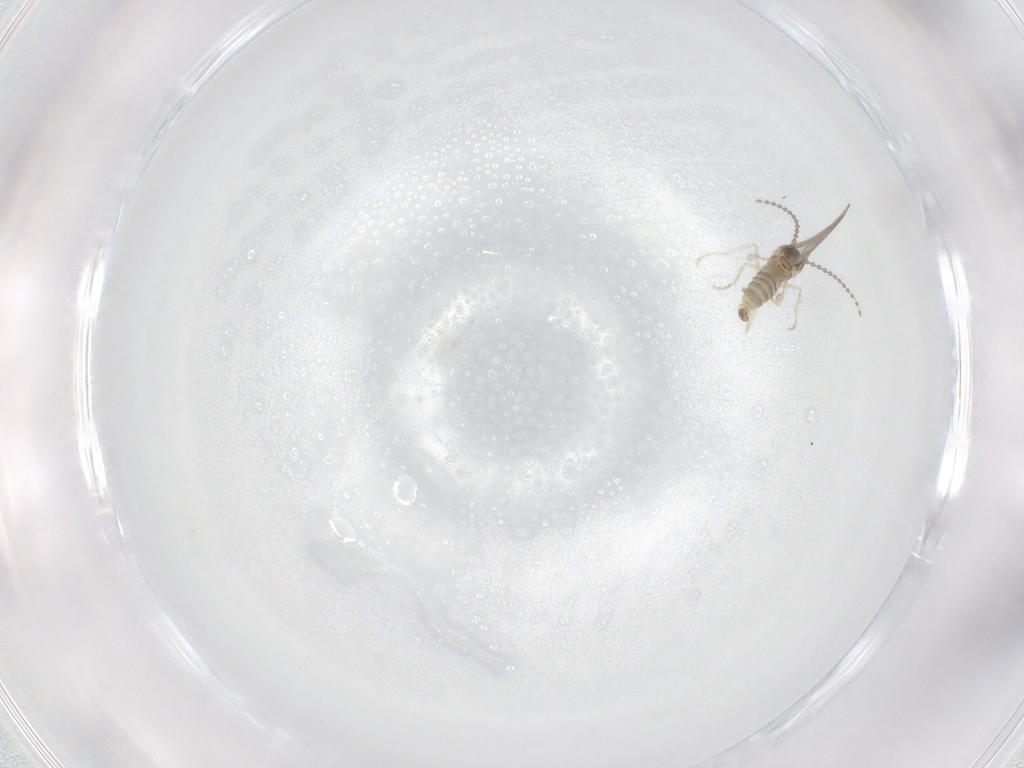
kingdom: Animalia
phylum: Arthropoda
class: Insecta
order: Diptera
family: Cecidomyiidae
